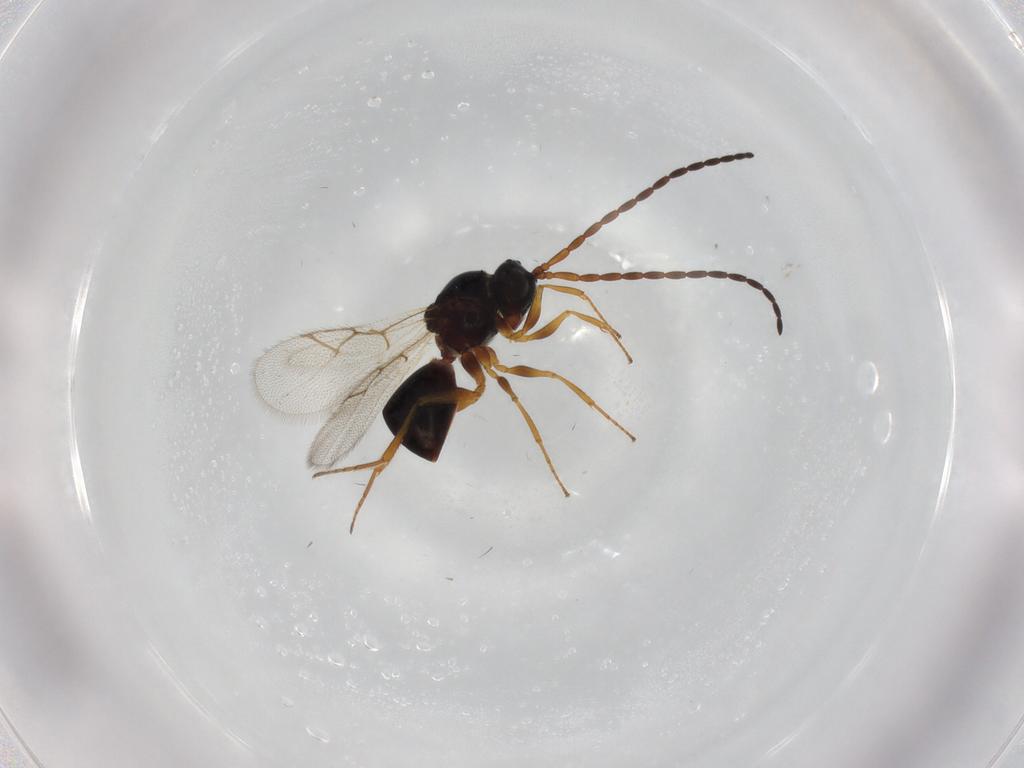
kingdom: Animalia
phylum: Arthropoda
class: Insecta
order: Hymenoptera
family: Figitidae
